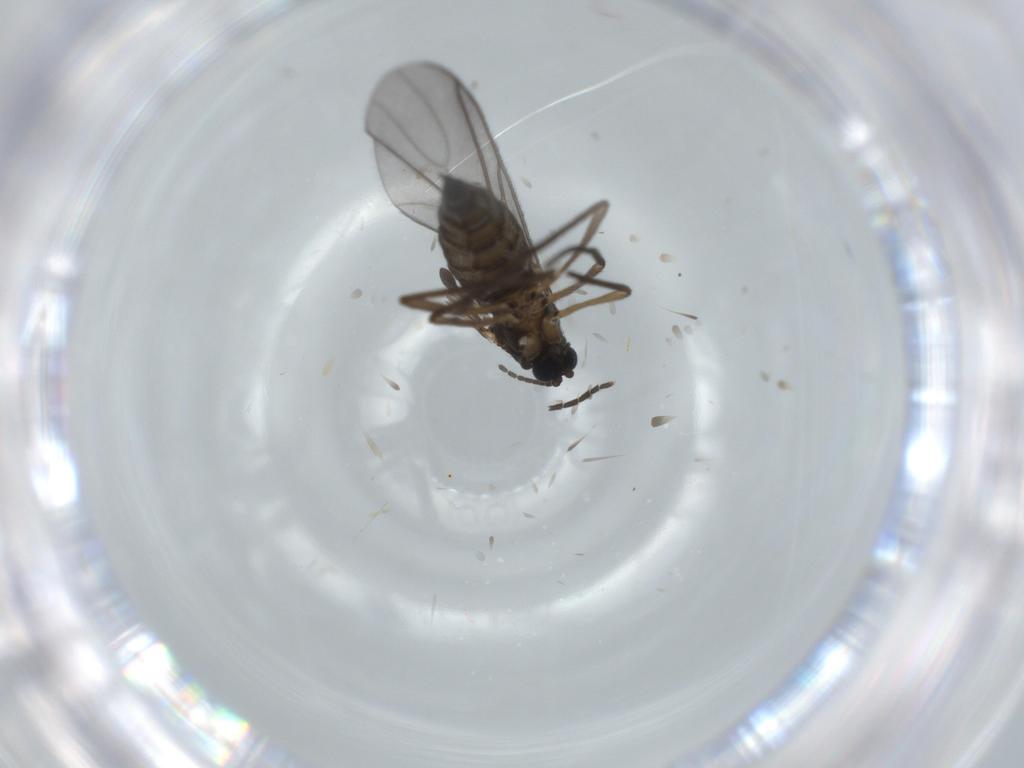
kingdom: Animalia
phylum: Arthropoda
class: Insecta
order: Diptera
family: Sciaridae
